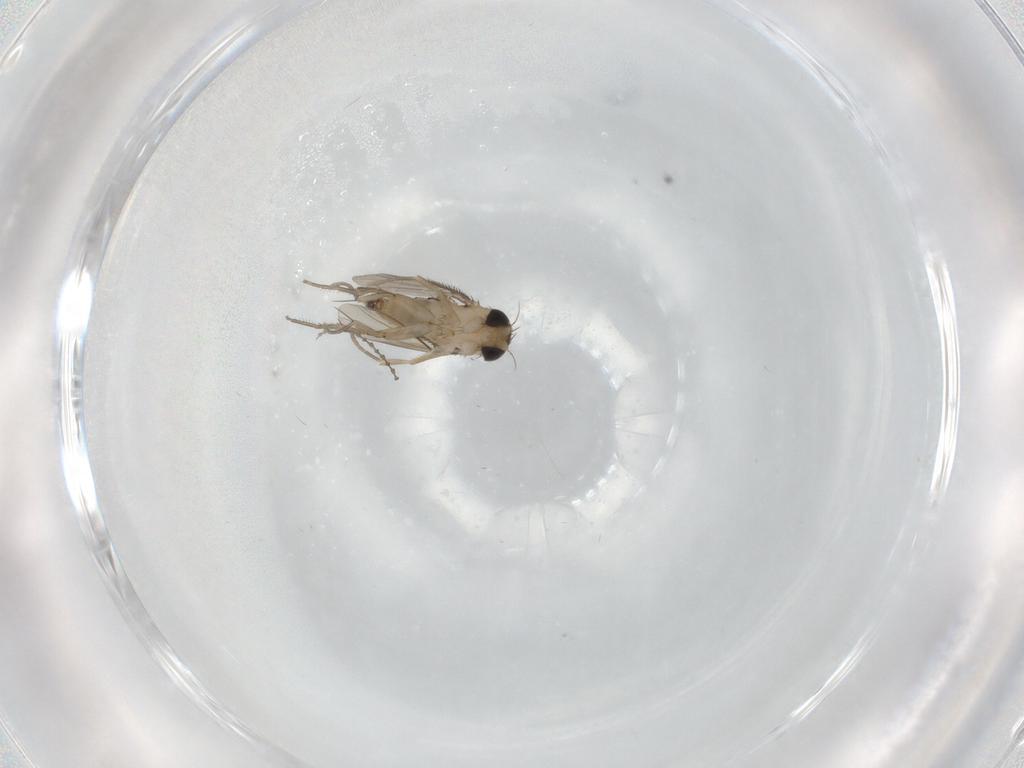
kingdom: Animalia
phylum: Arthropoda
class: Insecta
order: Diptera
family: Phoridae
